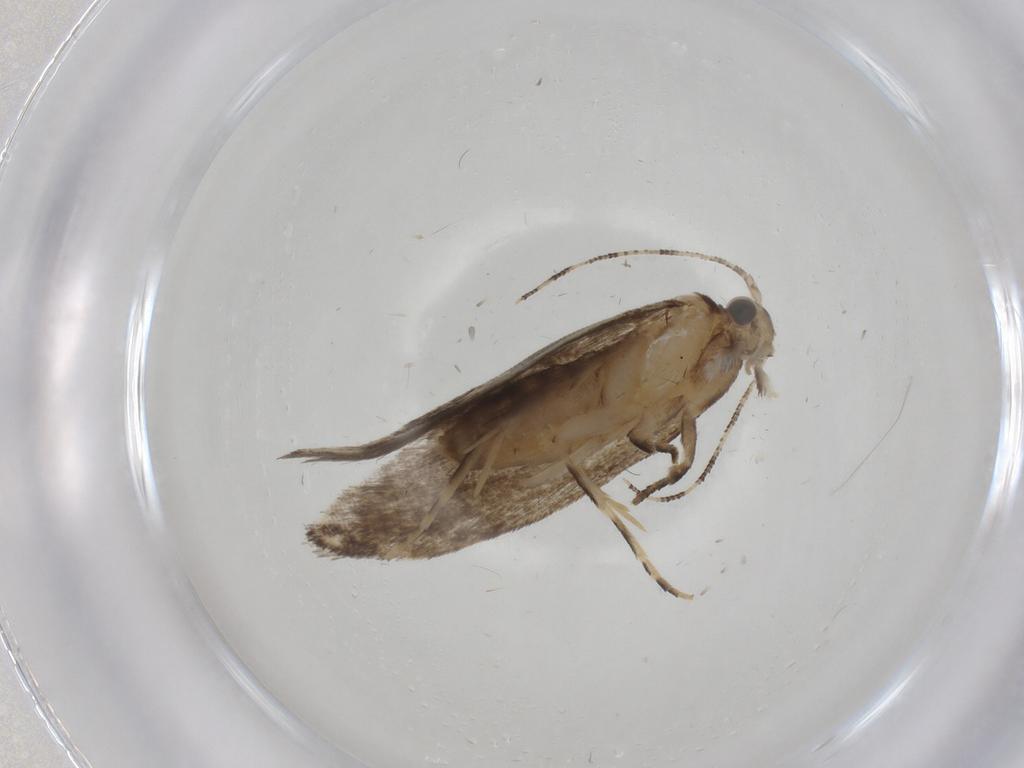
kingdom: Animalia
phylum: Arthropoda
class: Insecta
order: Lepidoptera
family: Tineidae
